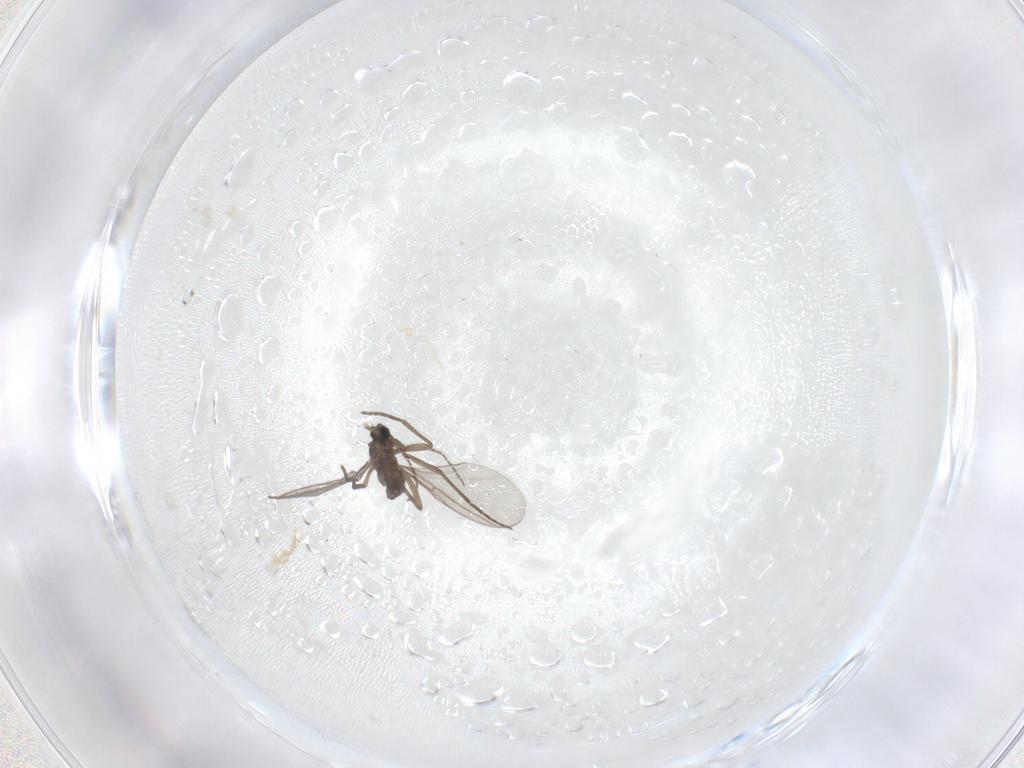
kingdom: Animalia
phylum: Arthropoda
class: Insecta
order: Diptera
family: Sciaridae
